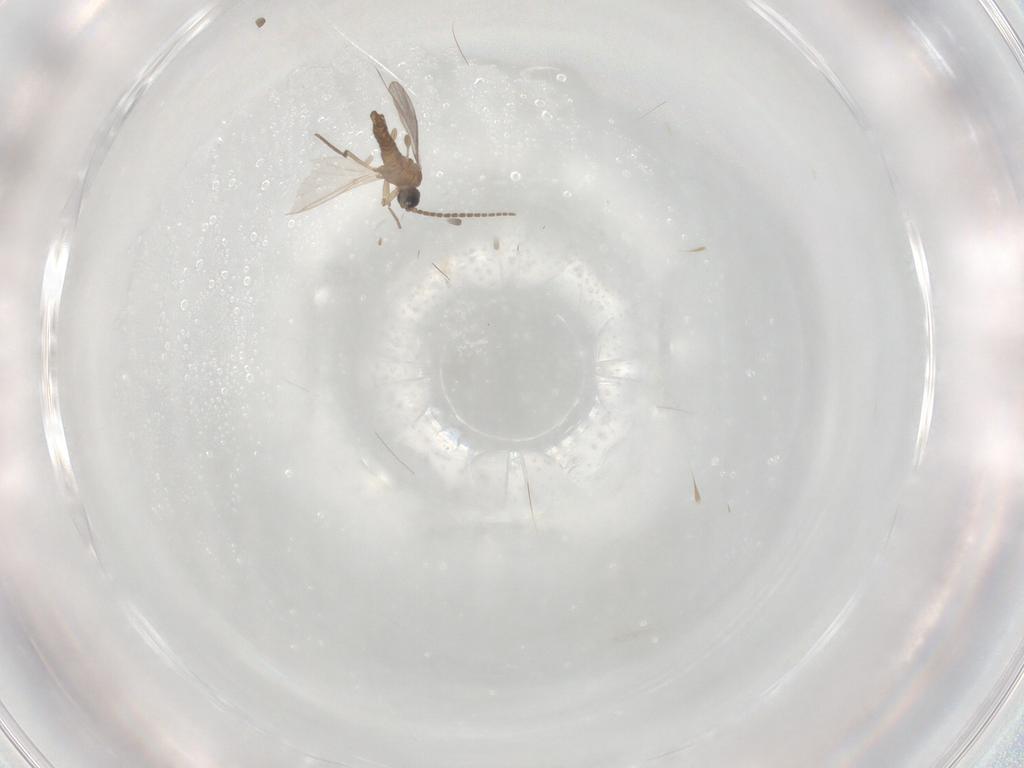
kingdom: Animalia
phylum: Arthropoda
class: Insecta
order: Diptera
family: Sciaridae
